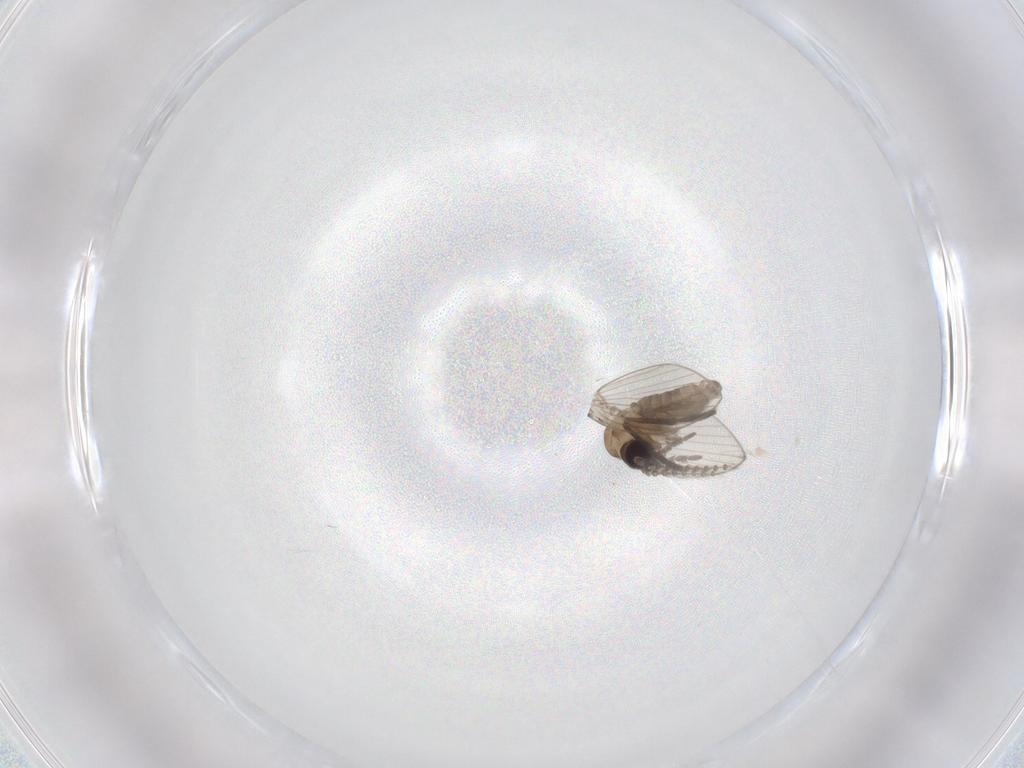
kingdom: Animalia
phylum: Arthropoda
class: Insecta
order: Diptera
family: Psychodidae
